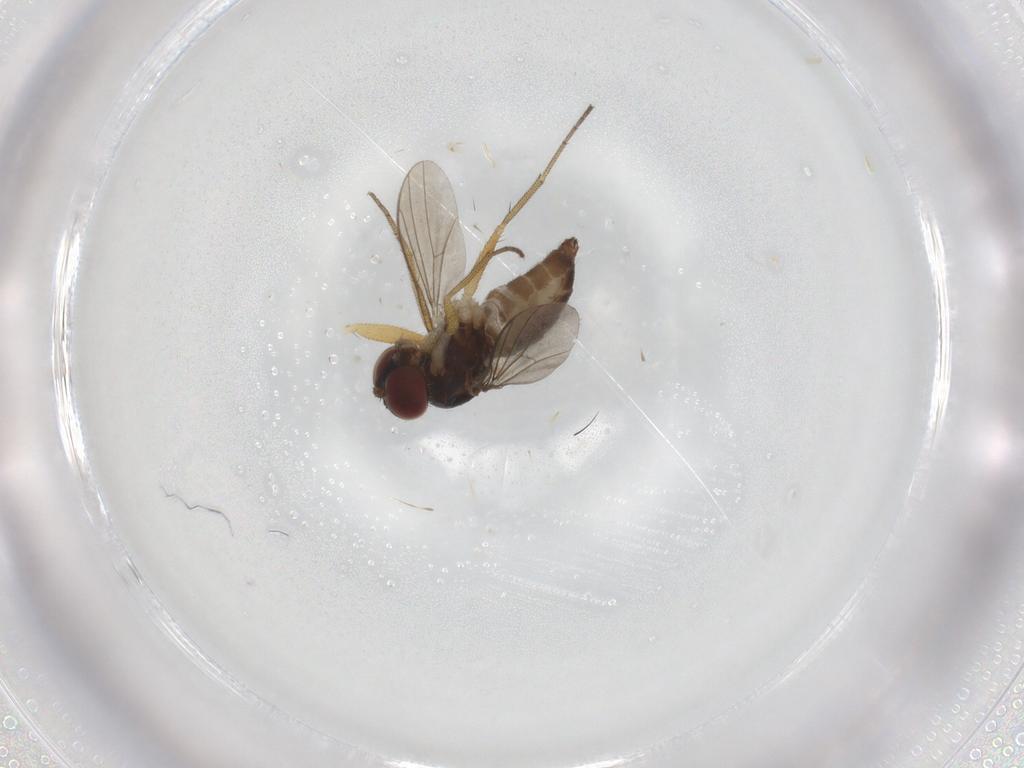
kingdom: Animalia
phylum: Arthropoda
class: Insecta
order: Diptera
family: Dolichopodidae
